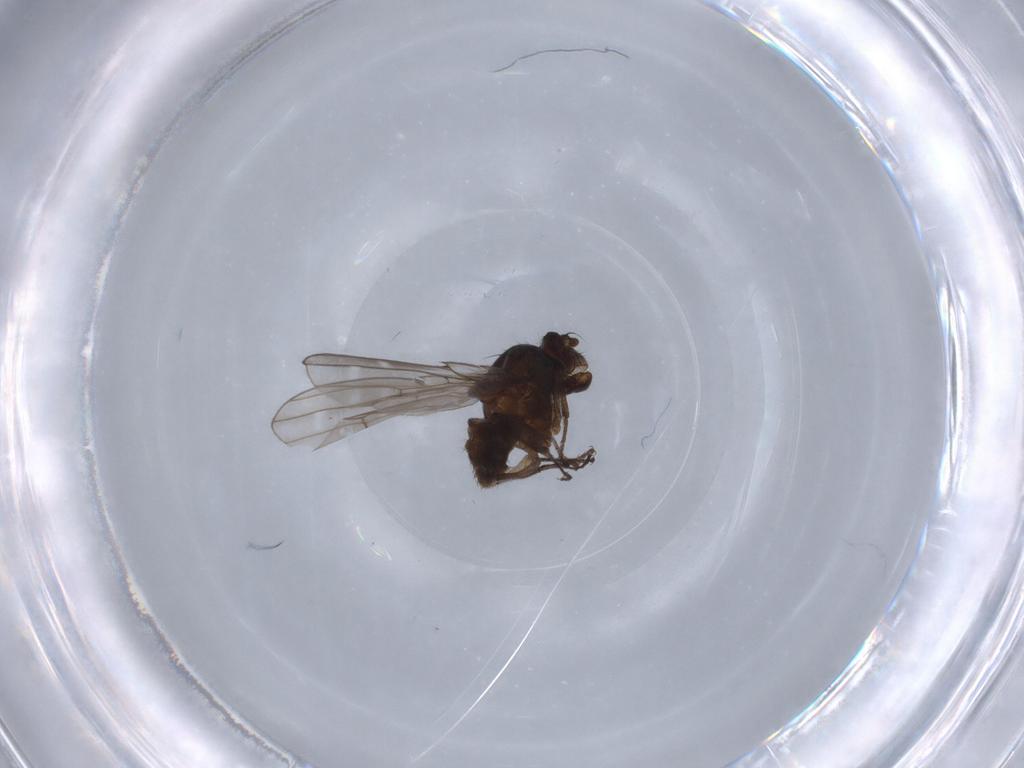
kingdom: Animalia
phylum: Arthropoda
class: Insecta
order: Diptera
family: Ephydridae
